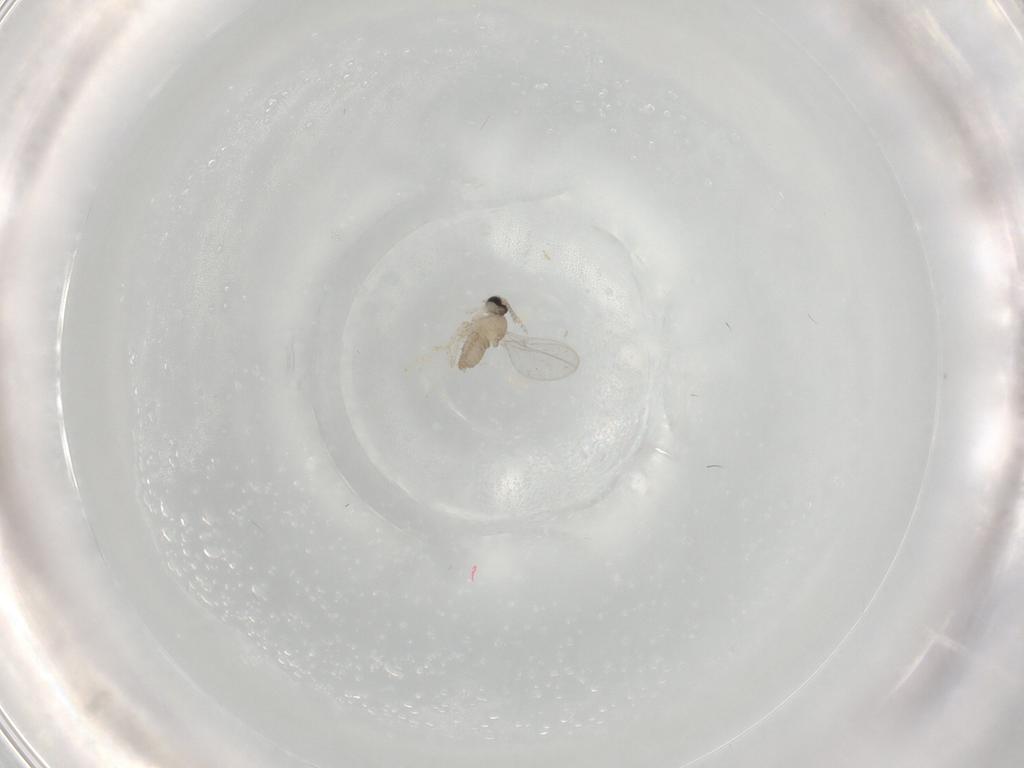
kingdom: Animalia
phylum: Arthropoda
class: Insecta
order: Diptera
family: Cecidomyiidae
